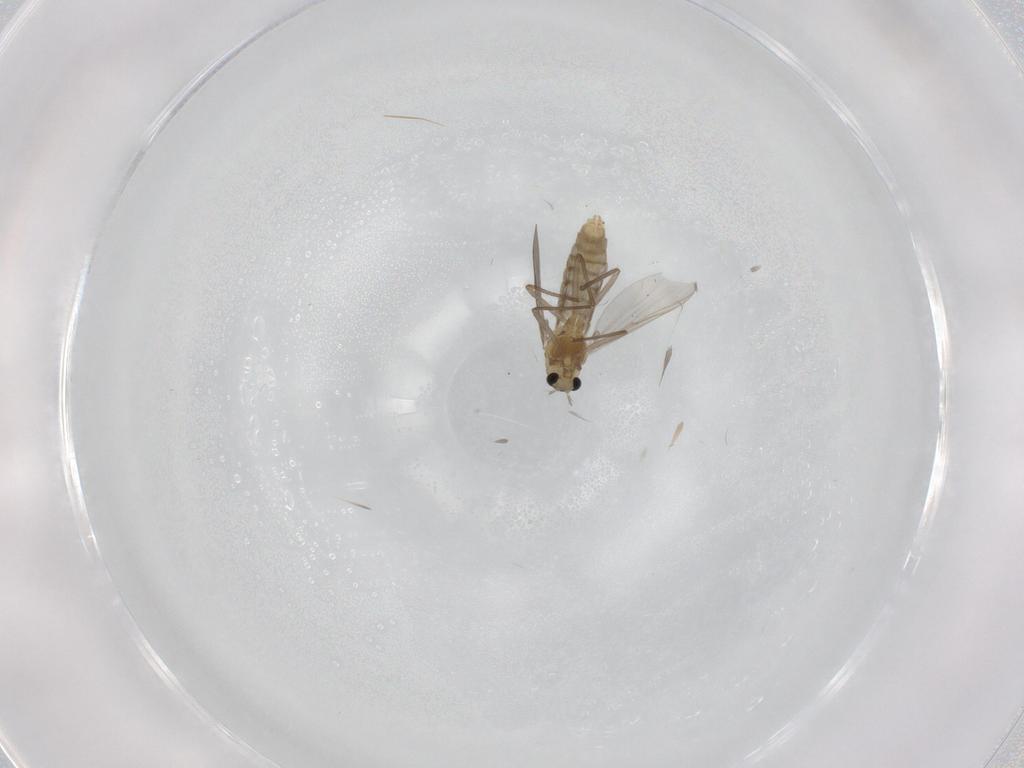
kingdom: Animalia
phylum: Arthropoda
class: Insecta
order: Diptera
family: Chironomidae
